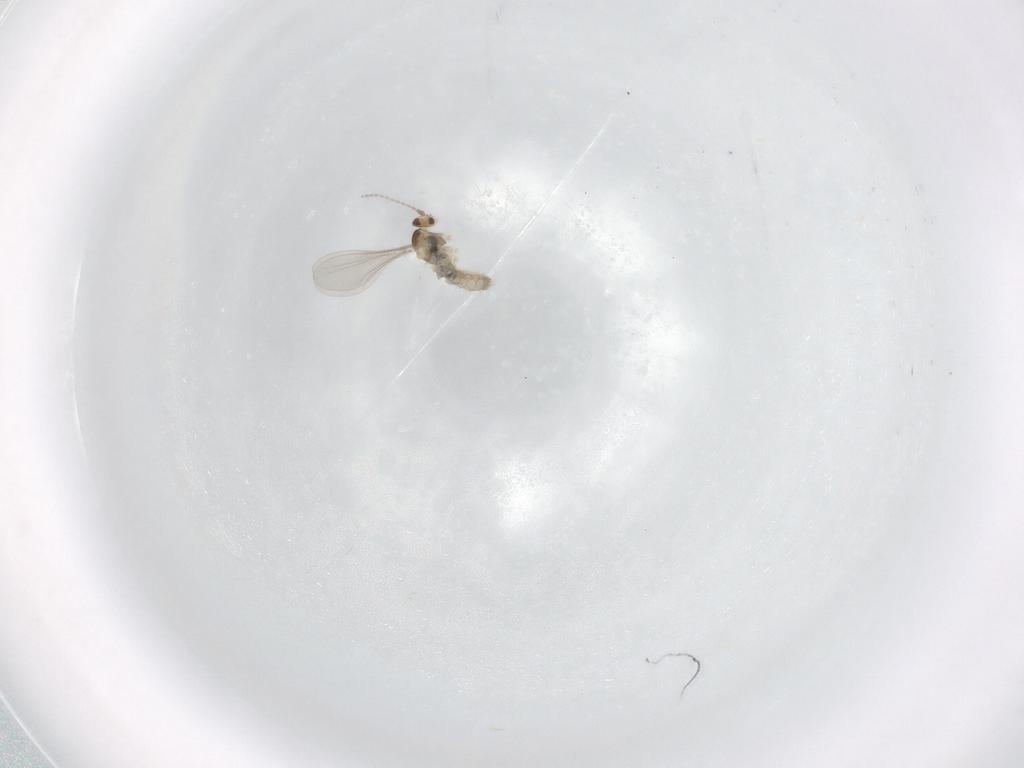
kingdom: Animalia
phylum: Arthropoda
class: Insecta
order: Diptera
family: Cecidomyiidae
